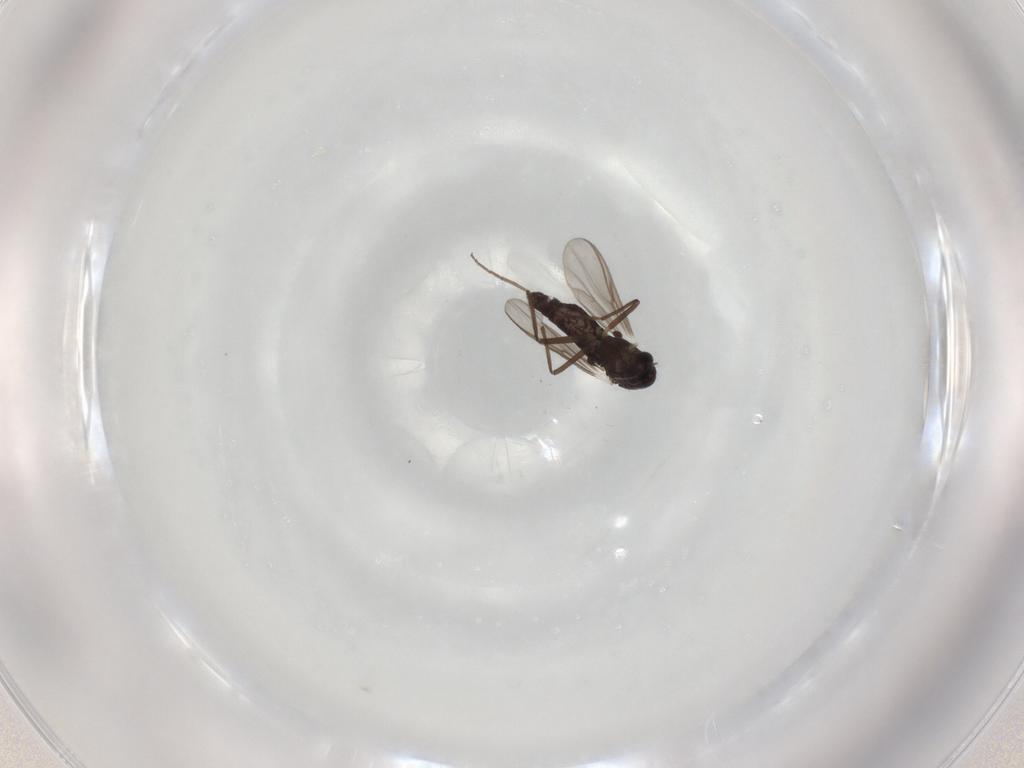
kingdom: Animalia
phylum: Arthropoda
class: Insecta
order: Diptera
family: Chironomidae
